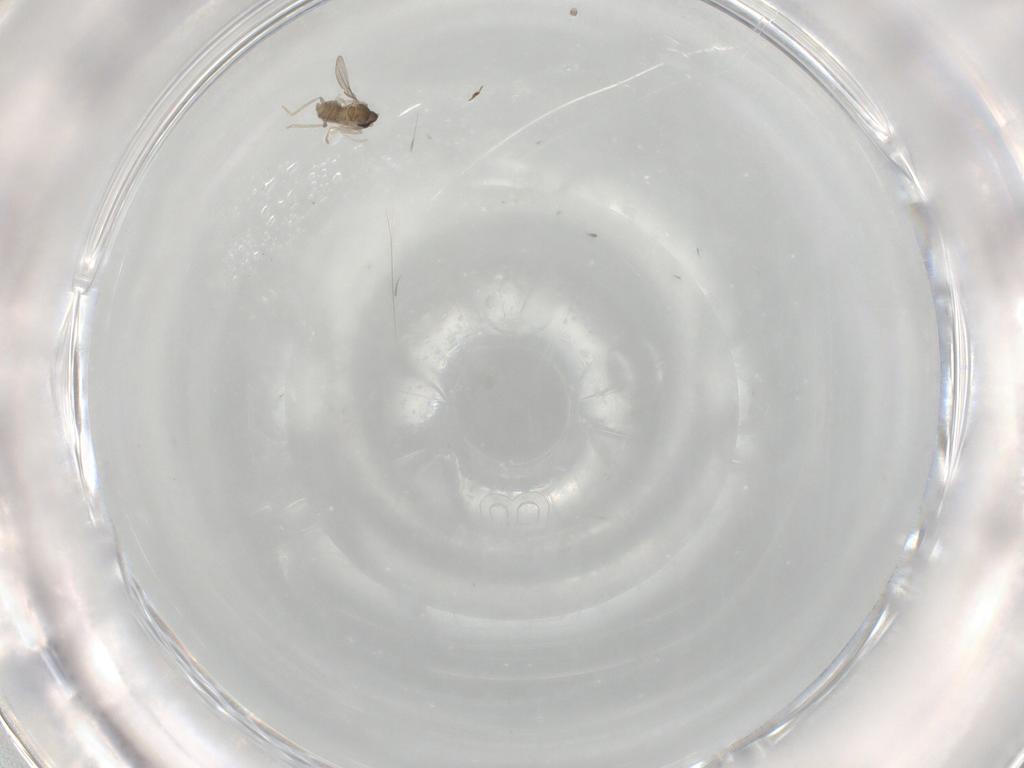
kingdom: Animalia
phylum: Arthropoda
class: Insecta
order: Diptera
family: Cecidomyiidae
